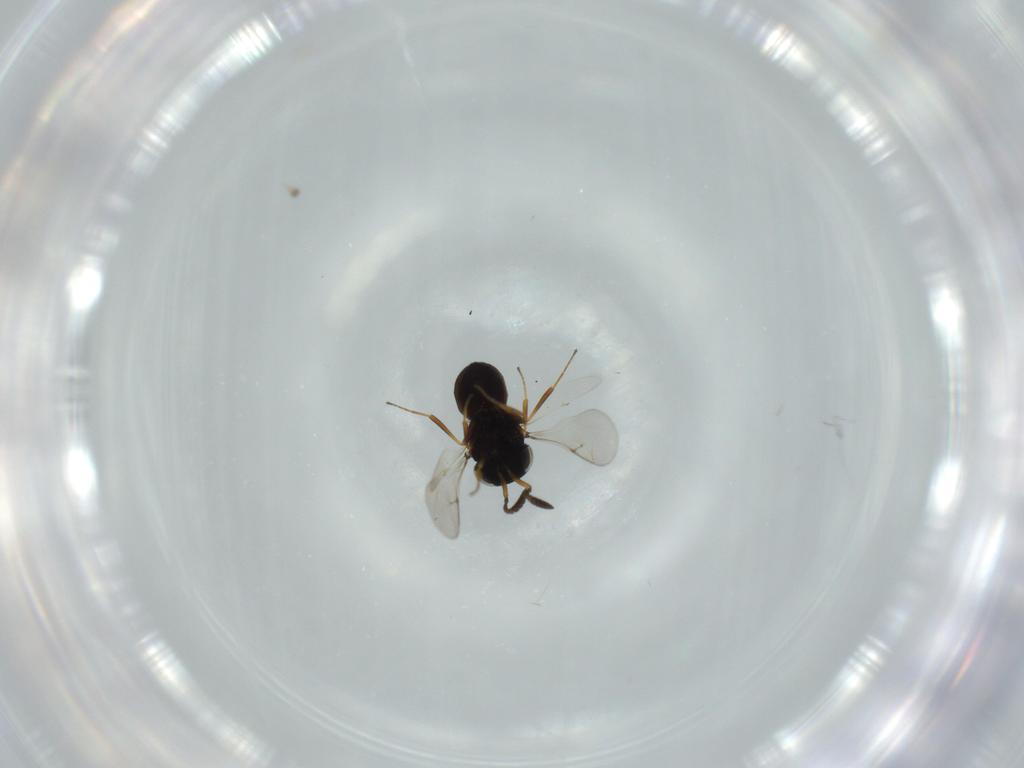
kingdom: Animalia
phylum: Arthropoda
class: Insecta
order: Hymenoptera
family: Scelionidae
